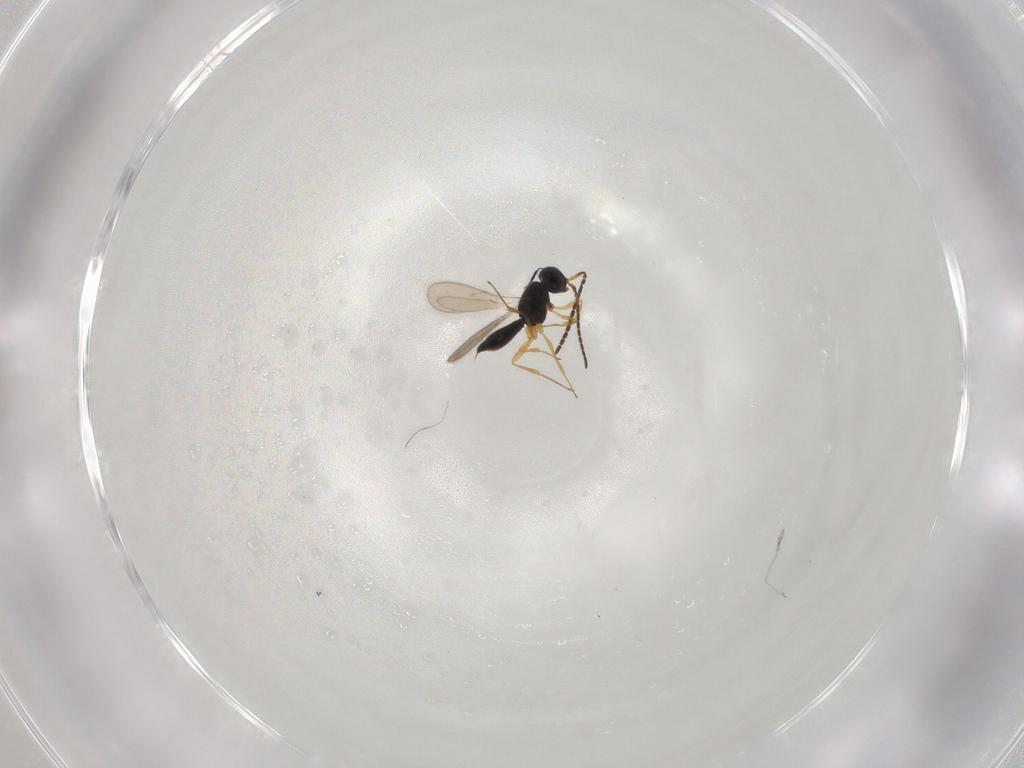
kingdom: Animalia
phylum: Arthropoda
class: Insecta
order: Hymenoptera
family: Scelionidae
